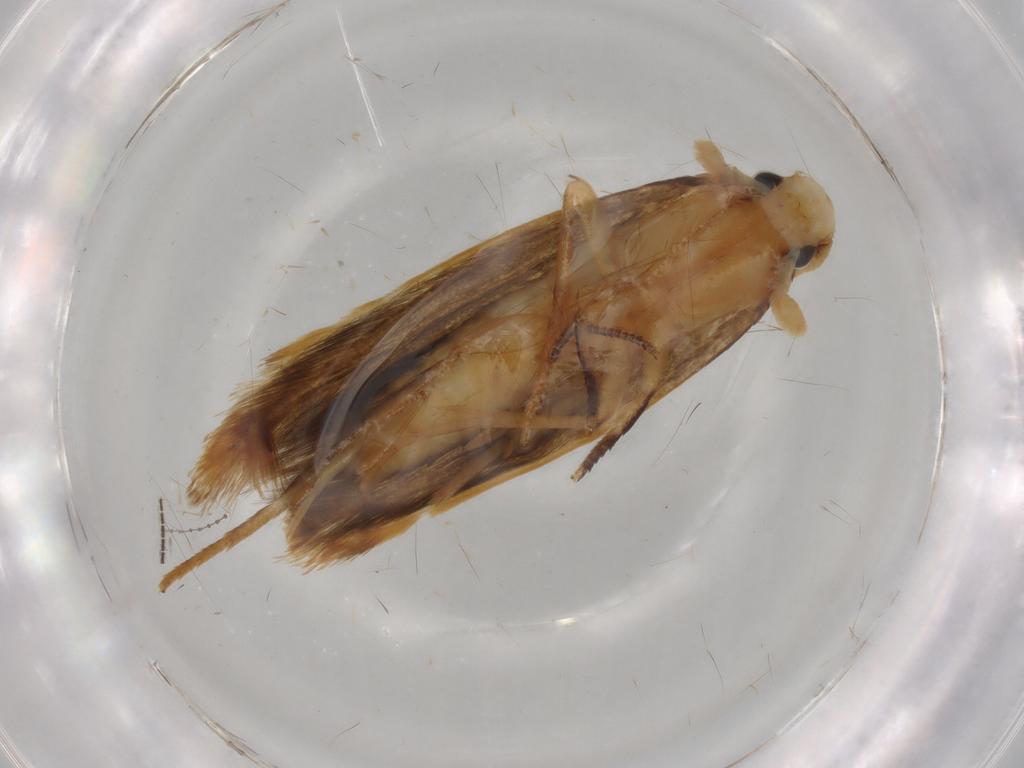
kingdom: Animalia
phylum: Arthropoda
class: Insecta
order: Lepidoptera
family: Tineidae
